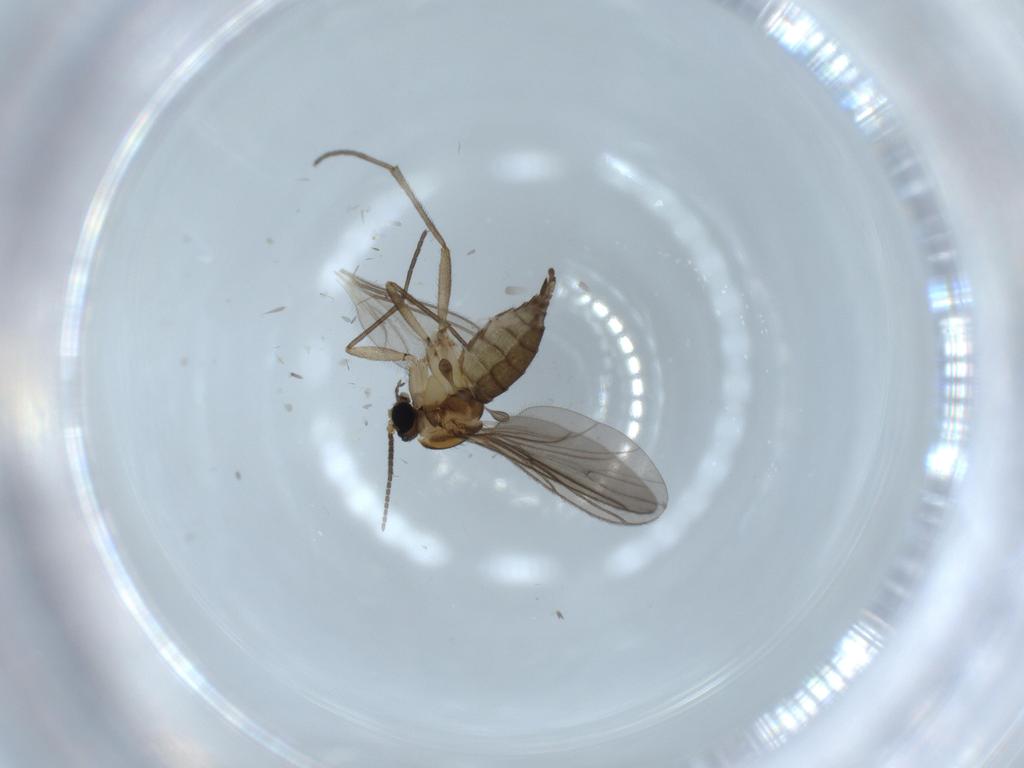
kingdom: Animalia
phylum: Arthropoda
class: Insecta
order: Diptera
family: Sciaridae
